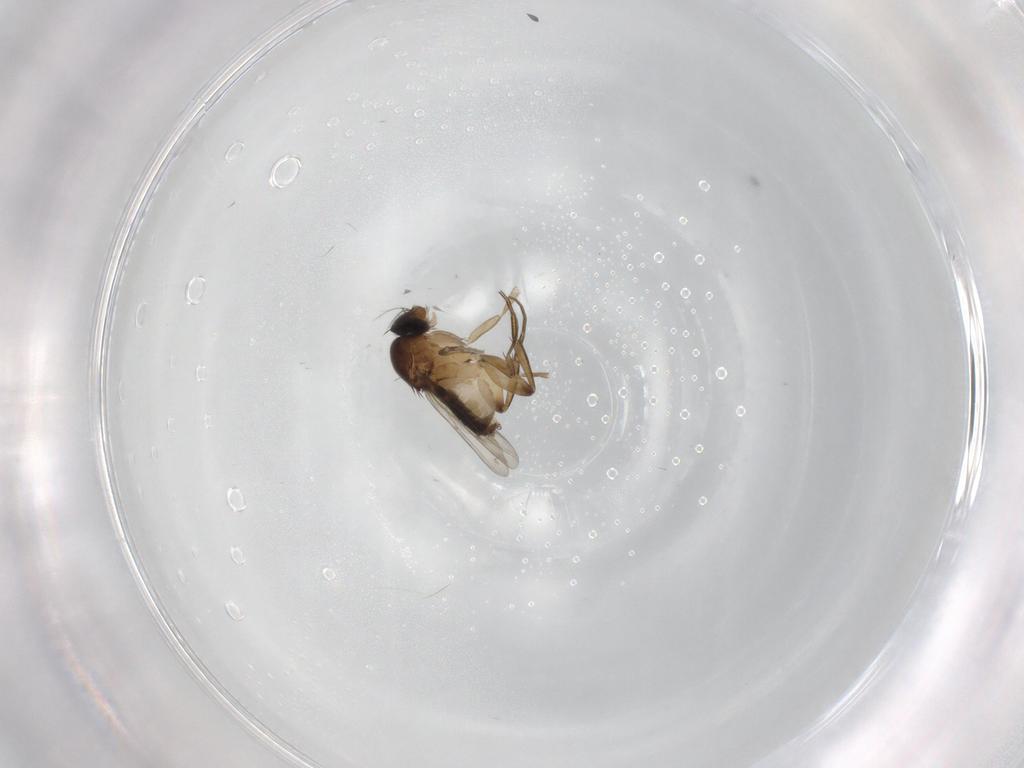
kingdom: Animalia
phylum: Arthropoda
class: Insecta
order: Diptera
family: Phoridae
